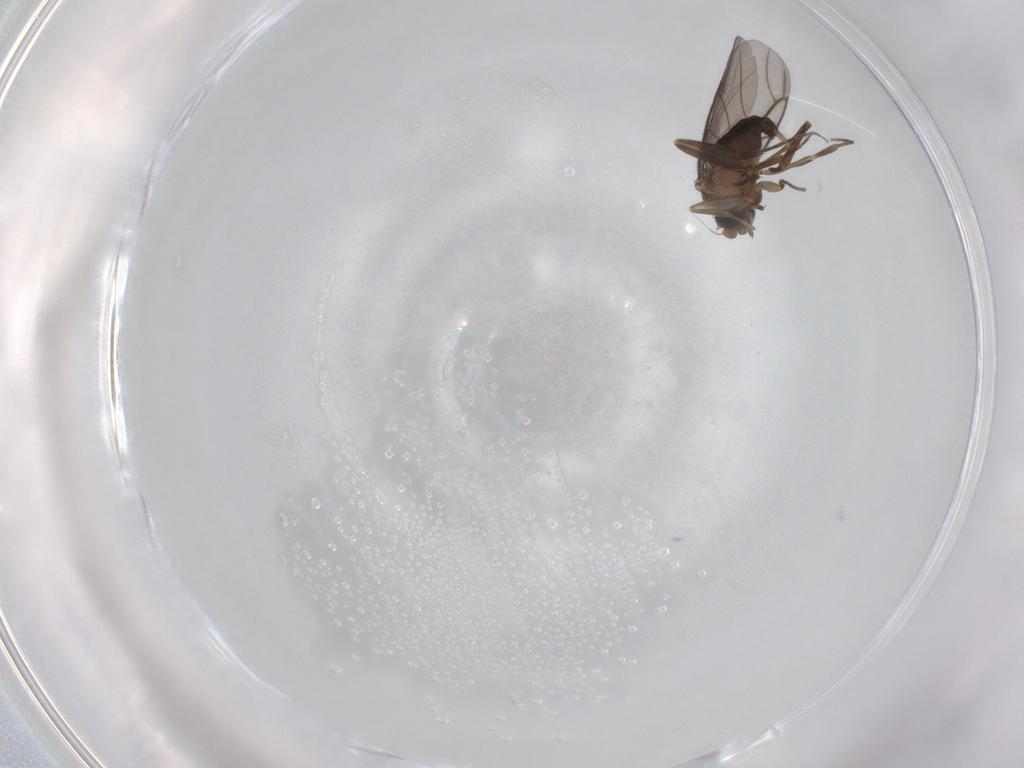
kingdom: Animalia
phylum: Arthropoda
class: Insecta
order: Diptera
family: Phoridae
